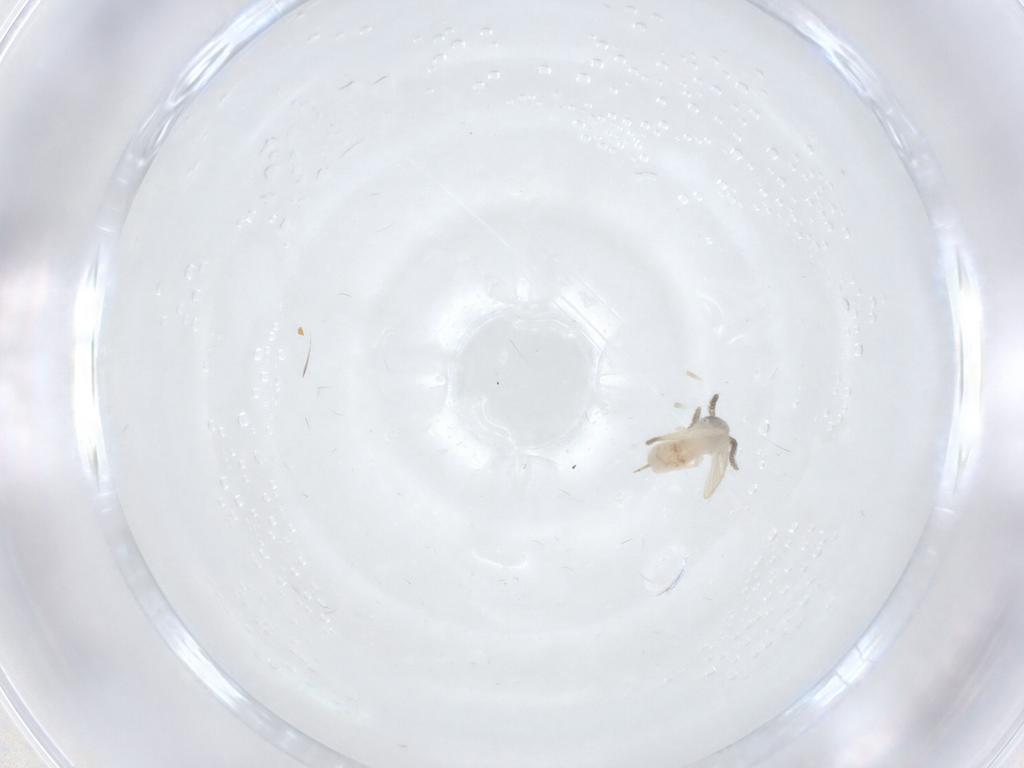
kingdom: Animalia
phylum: Arthropoda
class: Insecta
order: Diptera
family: Psychodidae
